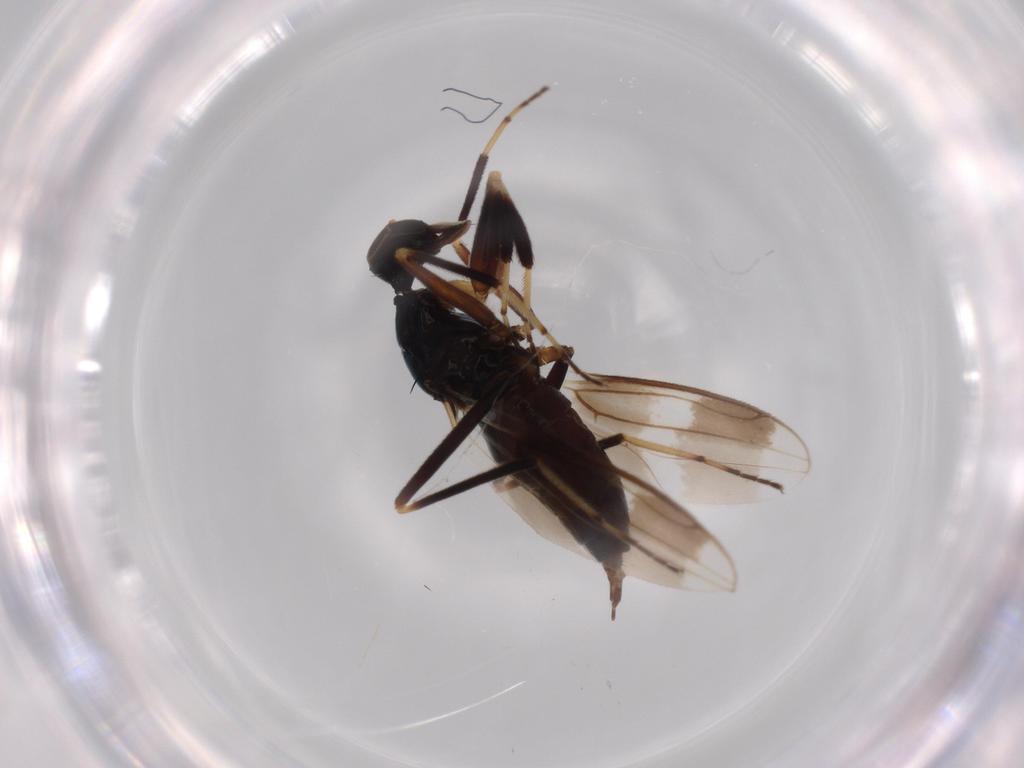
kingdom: Animalia
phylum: Arthropoda
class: Insecta
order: Diptera
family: Hybotidae
